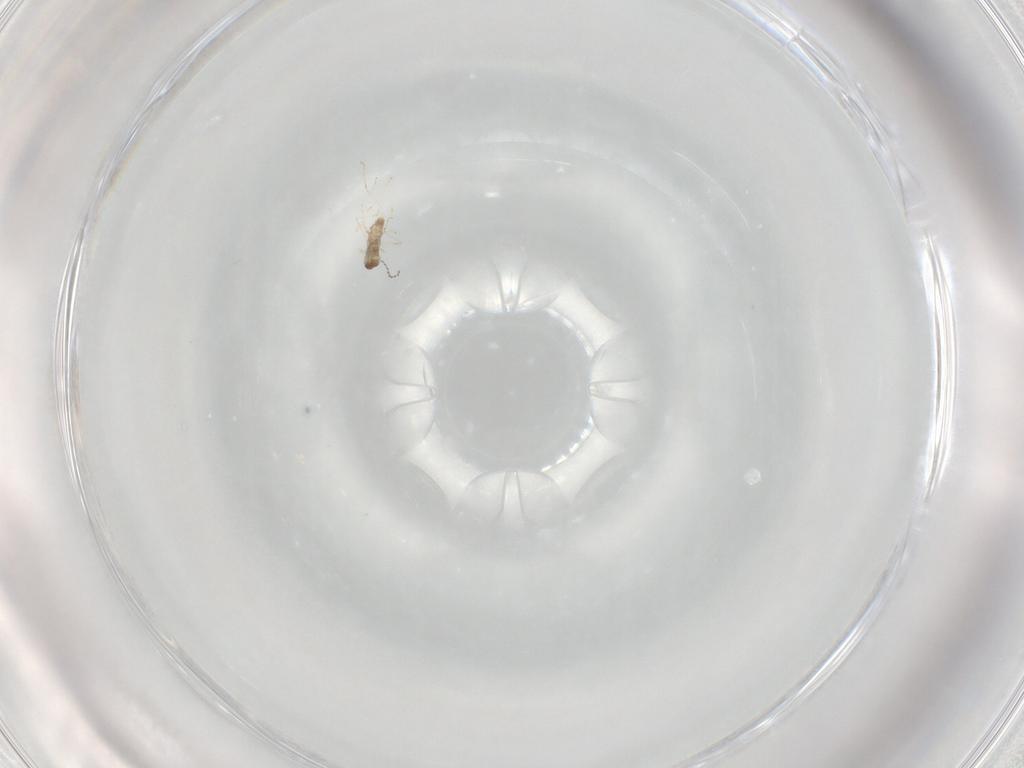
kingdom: Animalia
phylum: Arthropoda
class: Insecta
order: Diptera
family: Cecidomyiidae
